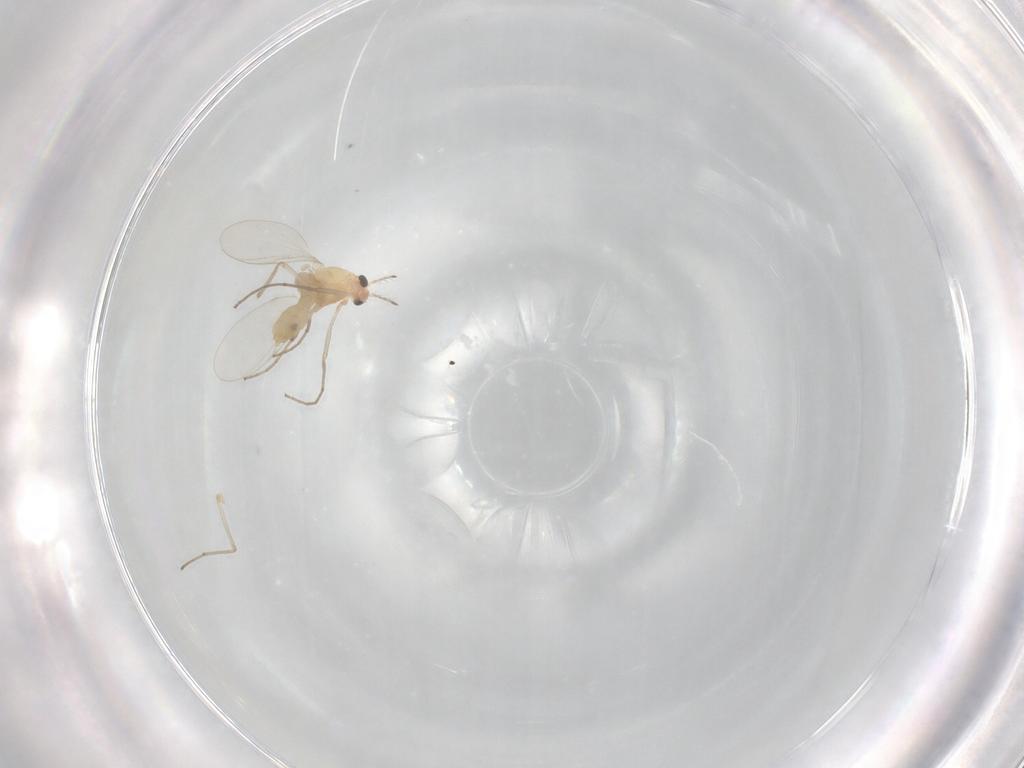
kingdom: Animalia
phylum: Arthropoda
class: Insecta
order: Diptera
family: Chironomidae
